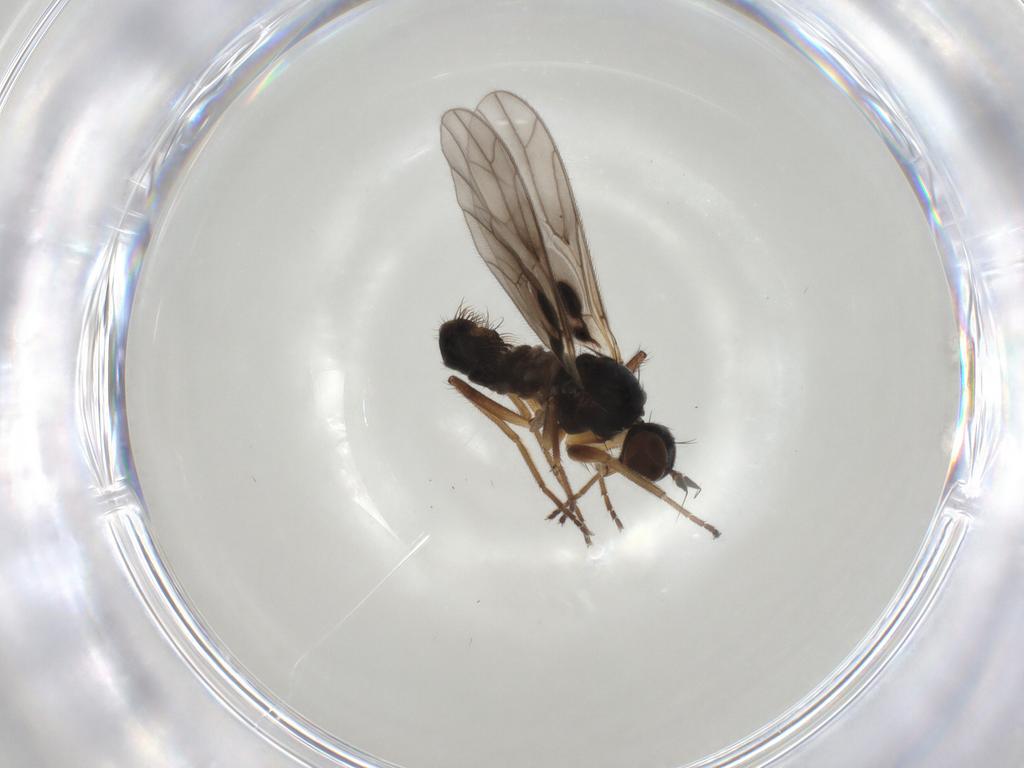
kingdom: Animalia
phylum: Arthropoda
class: Insecta
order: Diptera
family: Empididae
